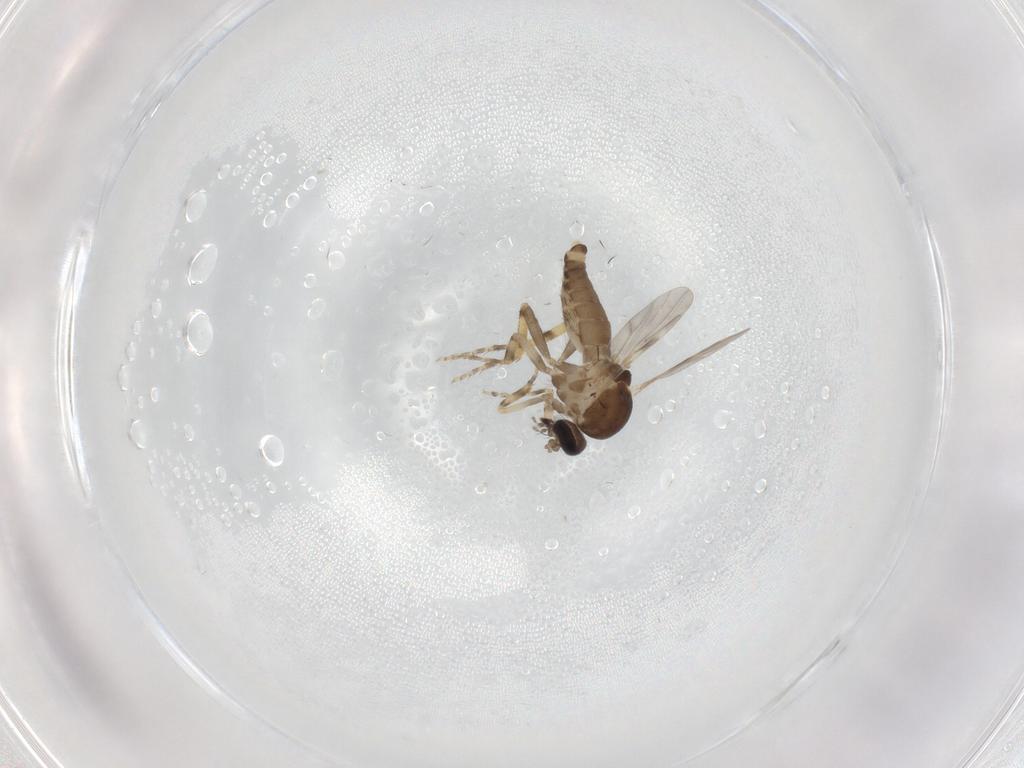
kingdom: Animalia
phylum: Arthropoda
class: Insecta
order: Diptera
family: Ceratopogonidae
